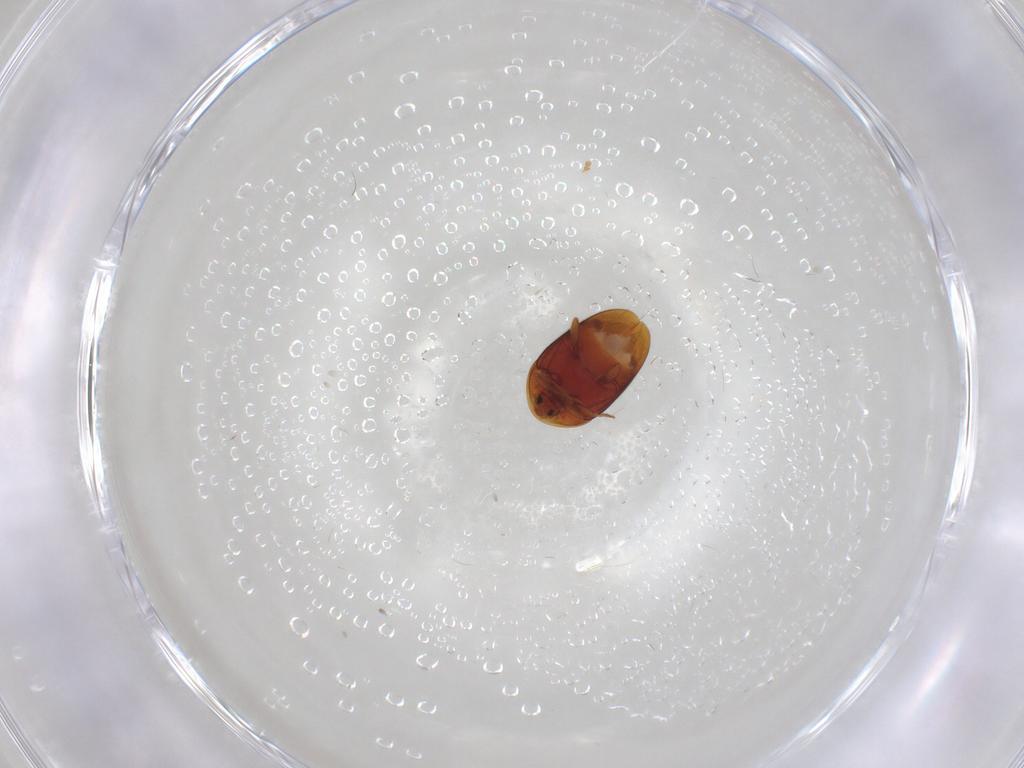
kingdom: Animalia
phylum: Arthropoda
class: Insecta
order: Coleoptera
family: Corylophidae
